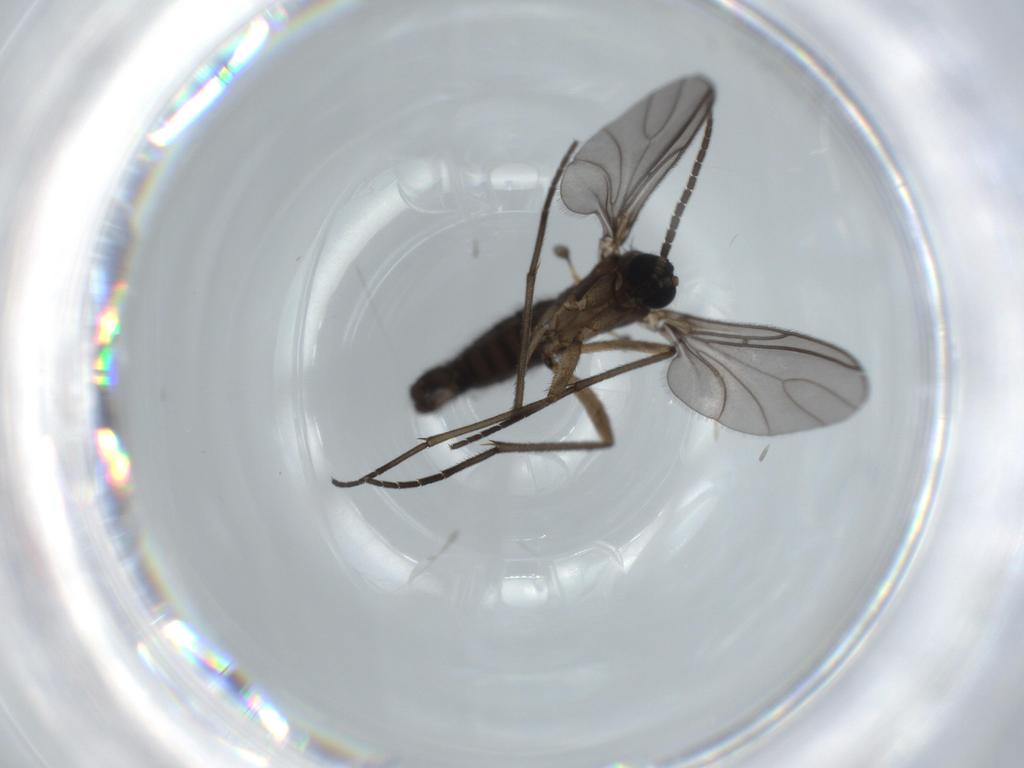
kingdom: Animalia
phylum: Arthropoda
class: Insecta
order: Diptera
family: Sciaridae
